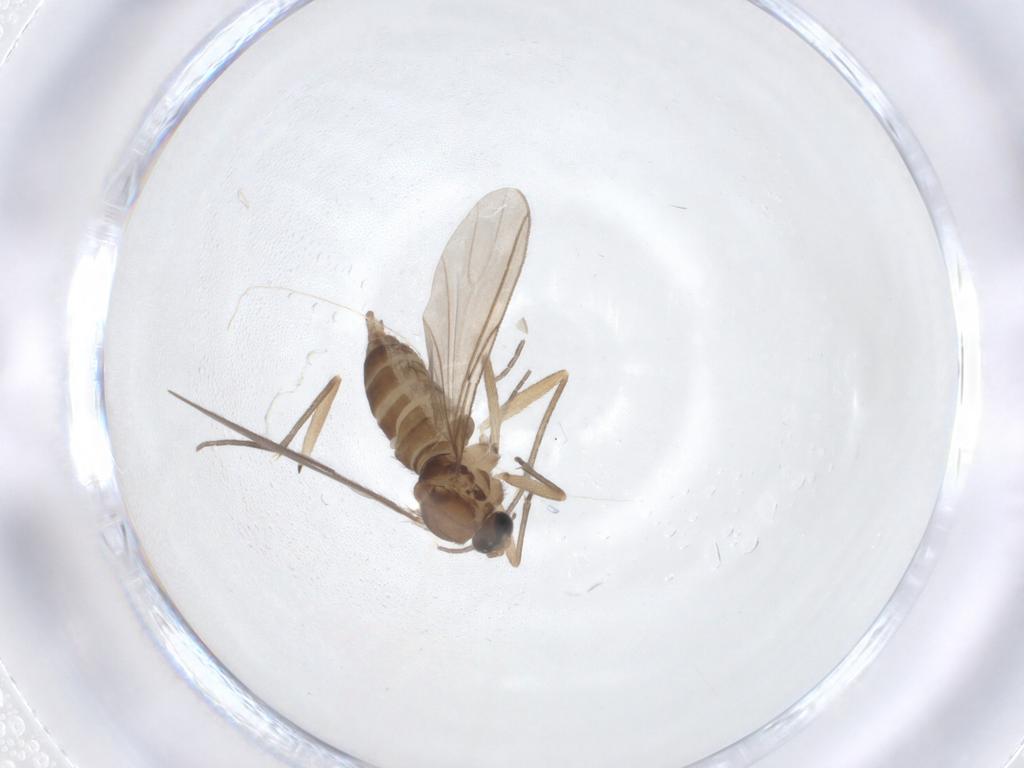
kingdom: Animalia
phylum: Arthropoda
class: Insecta
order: Diptera
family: Sciaridae
